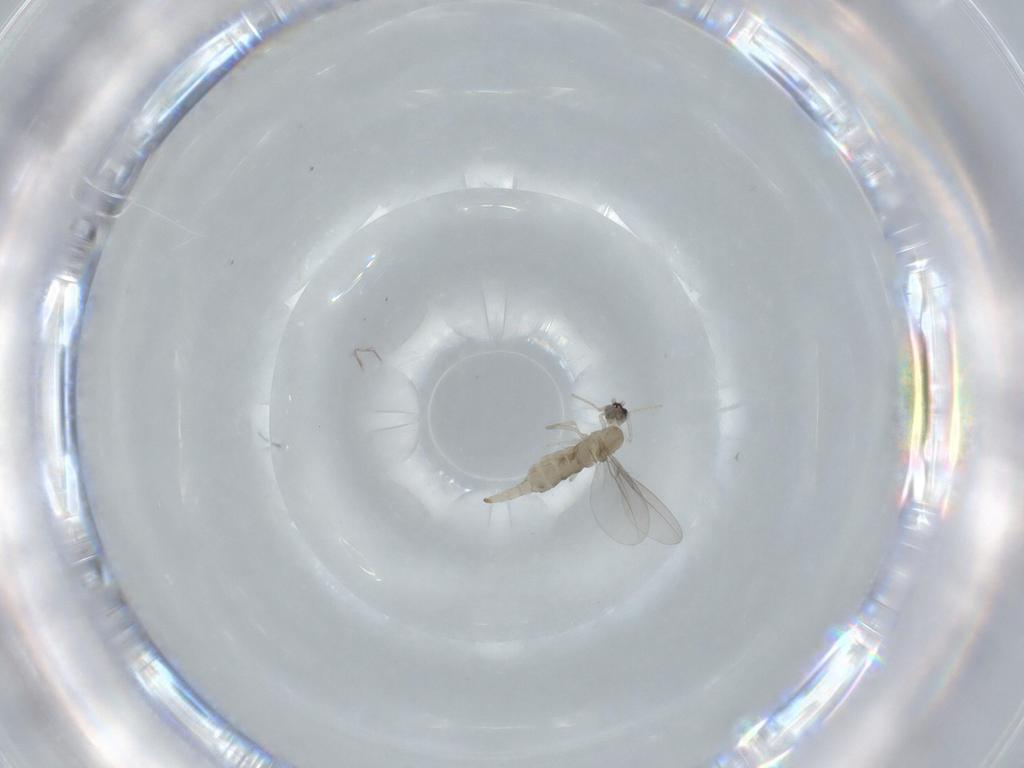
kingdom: Animalia
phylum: Arthropoda
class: Insecta
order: Diptera
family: Cecidomyiidae
